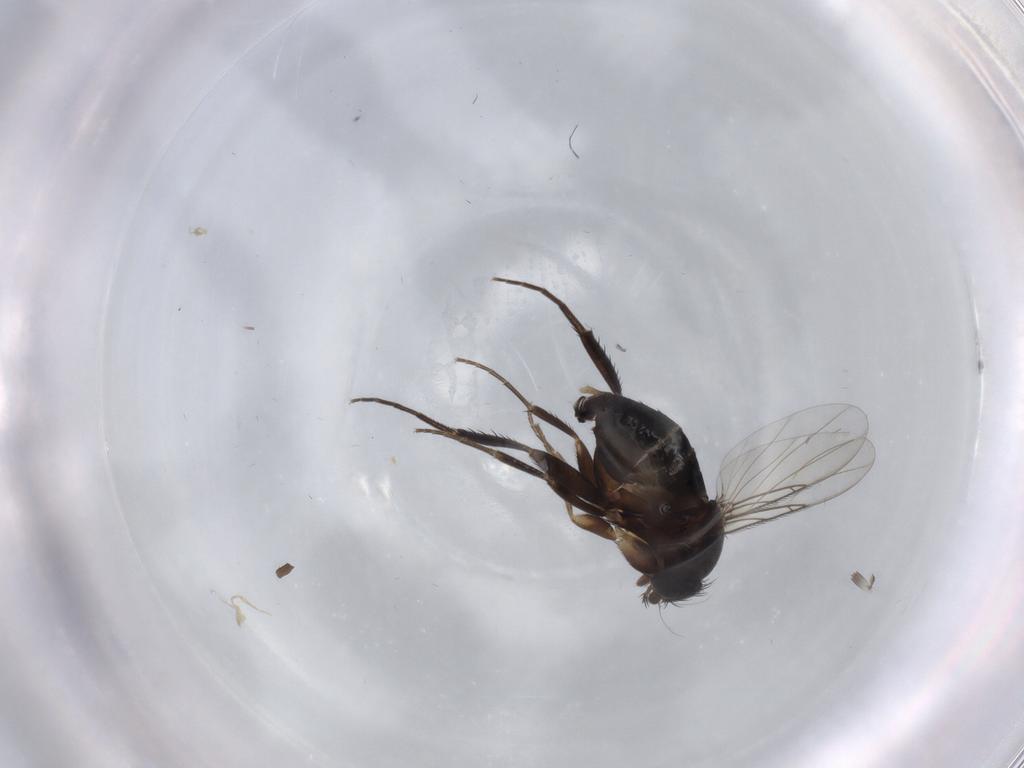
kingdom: Animalia
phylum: Arthropoda
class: Insecta
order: Diptera
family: Phoridae
